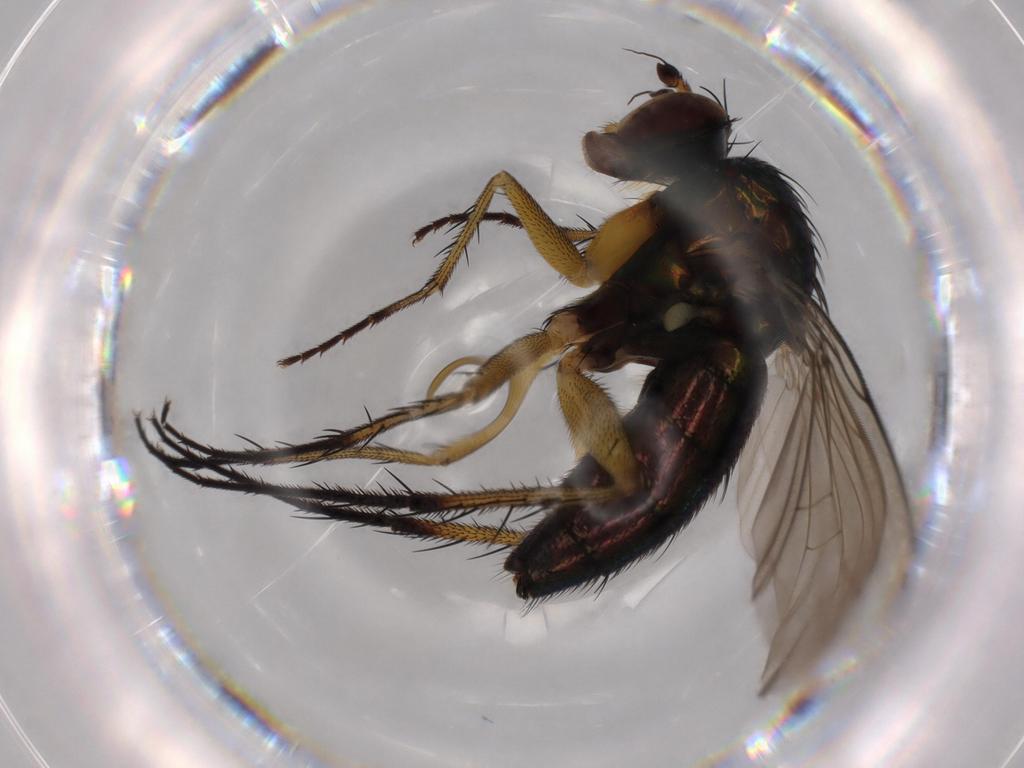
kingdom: Animalia
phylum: Arthropoda
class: Insecta
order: Diptera
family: Dolichopodidae
